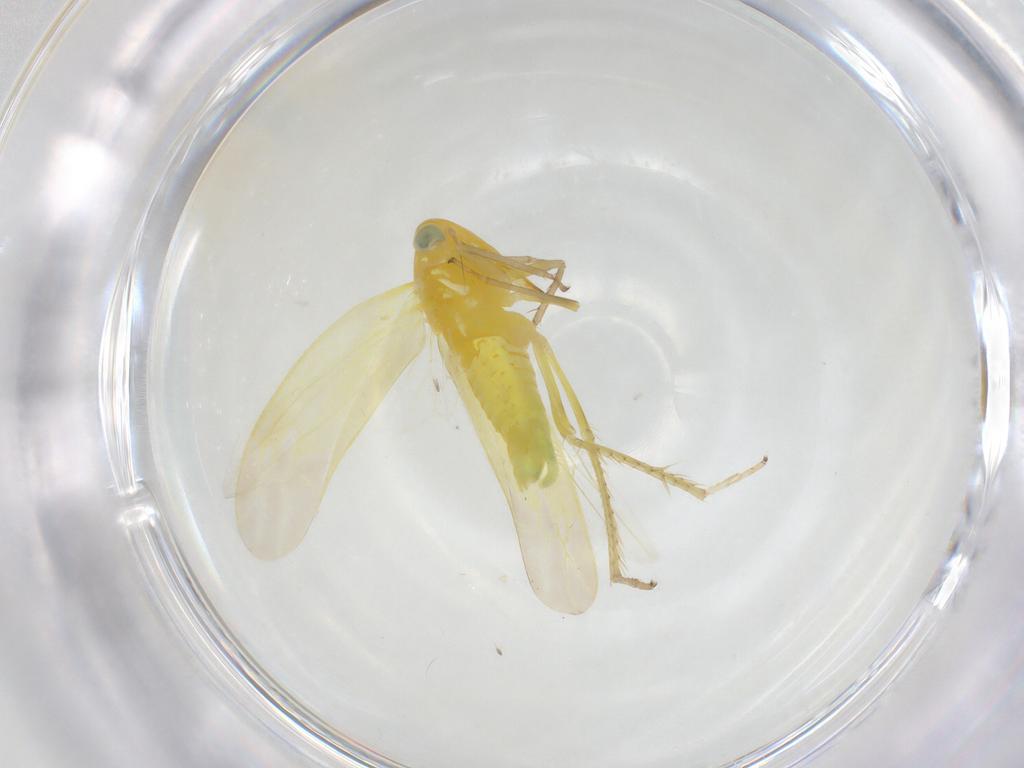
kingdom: Animalia
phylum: Arthropoda
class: Insecta
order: Hemiptera
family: Cicadellidae
